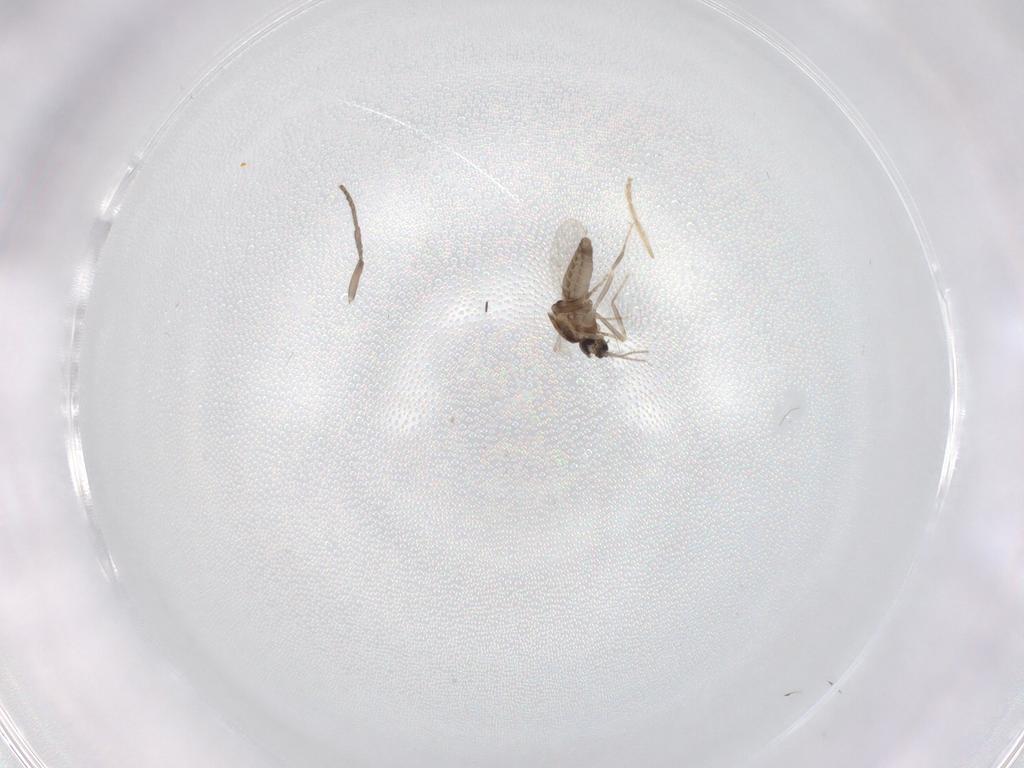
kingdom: Animalia
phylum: Arthropoda
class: Insecta
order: Diptera
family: Ceratopogonidae
